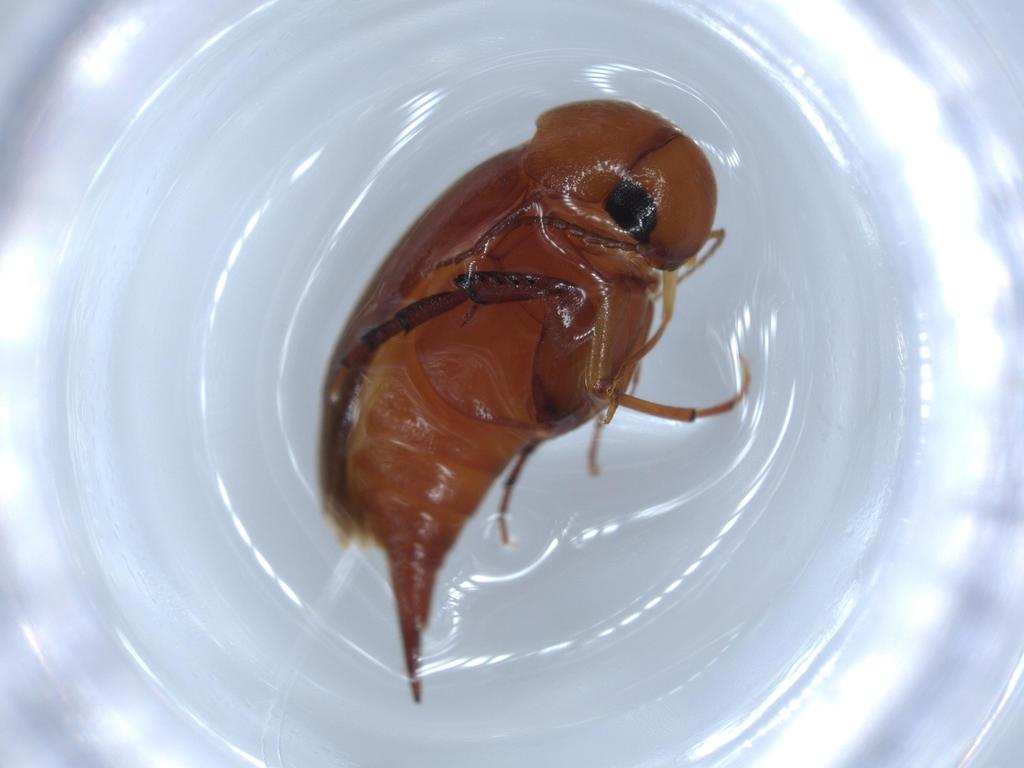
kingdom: Animalia
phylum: Arthropoda
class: Insecta
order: Coleoptera
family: Mordellidae
